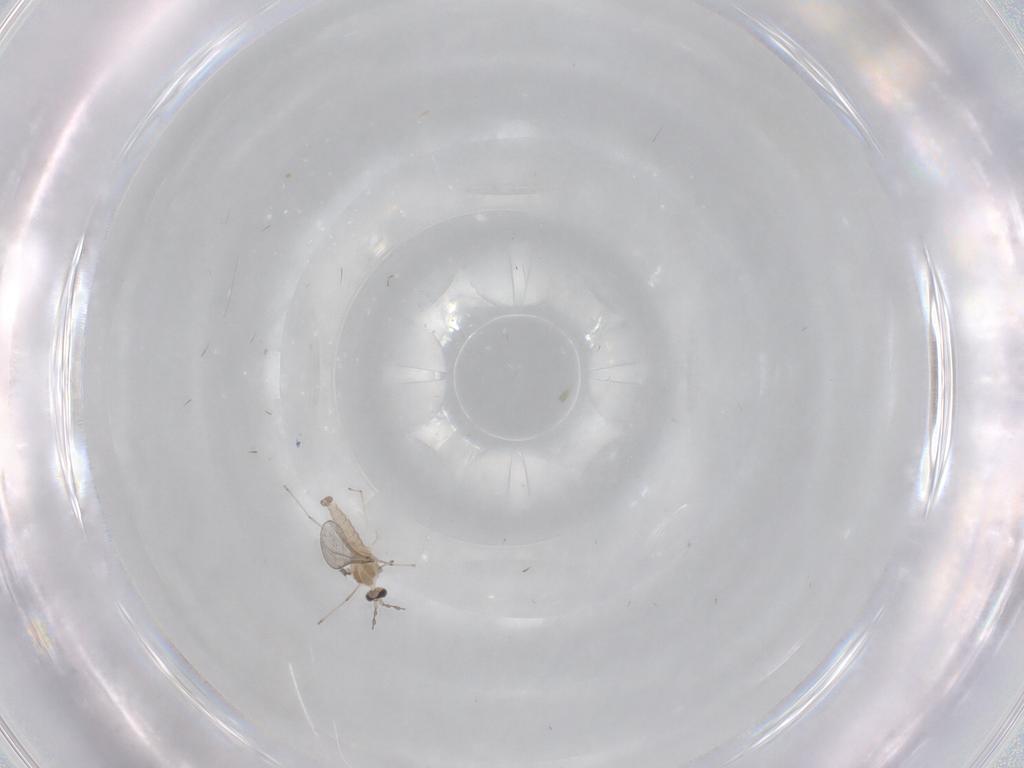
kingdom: Animalia
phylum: Arthropoda
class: Insecta
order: Diptera
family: Cecidomyiidae
